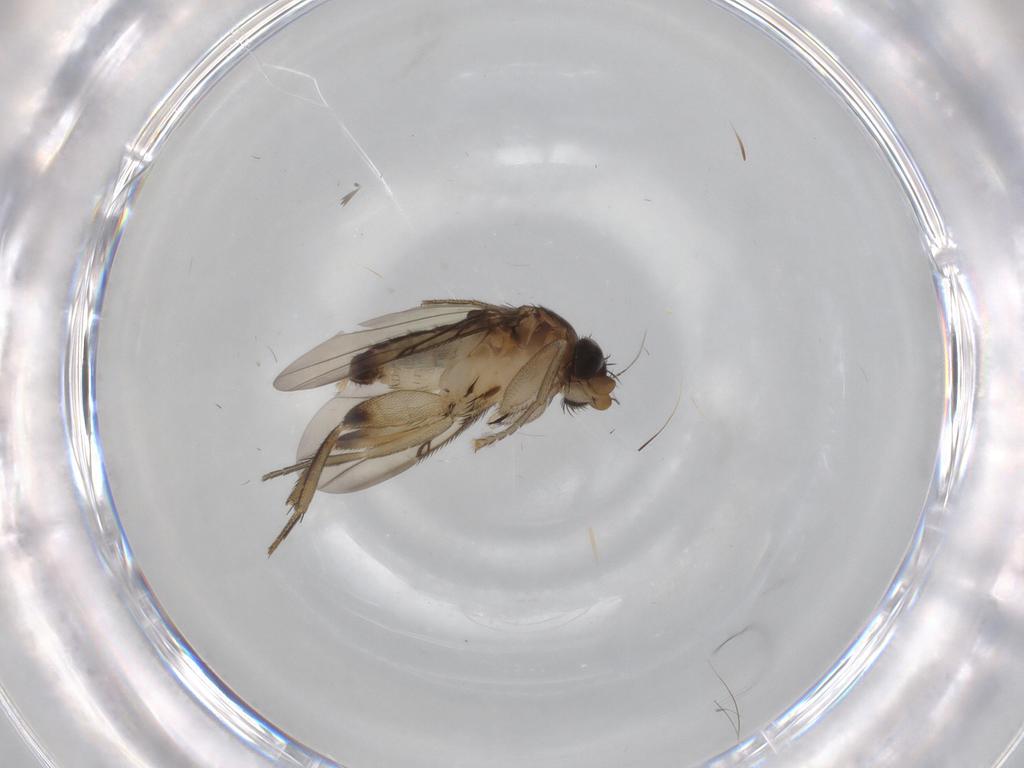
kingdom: Animalia
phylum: Arthropoda
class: Insecta
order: Diptera
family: Phoridae
